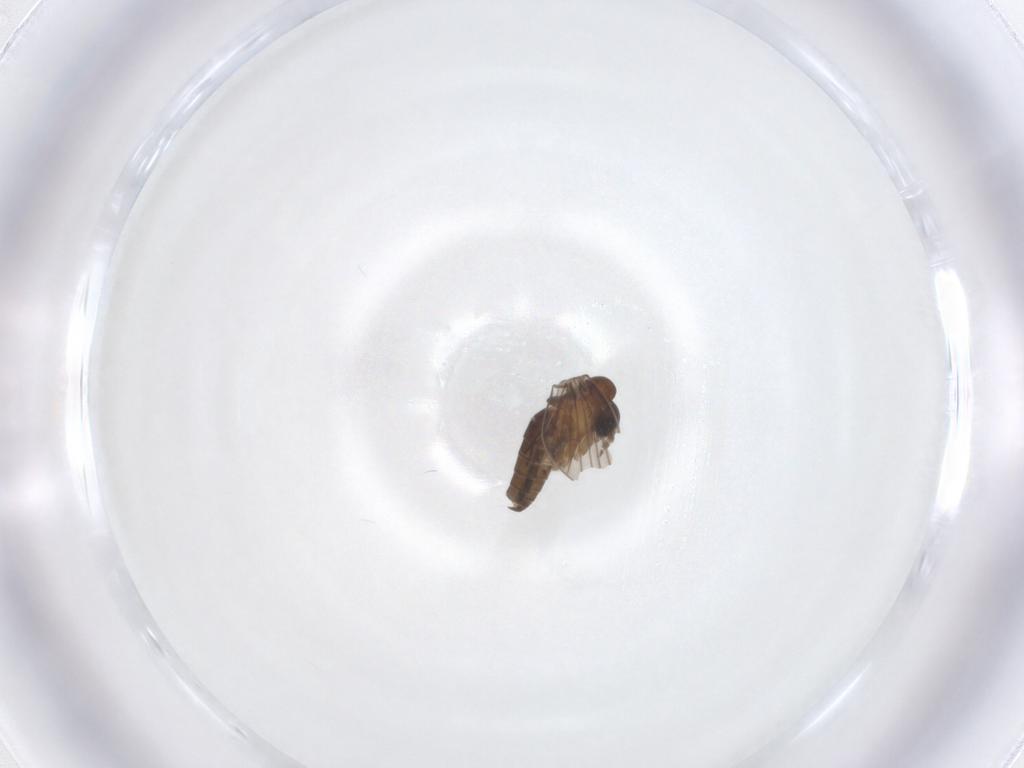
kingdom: Animalia
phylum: Arthropoda
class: Insecta
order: Diptera
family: Psychodidae
